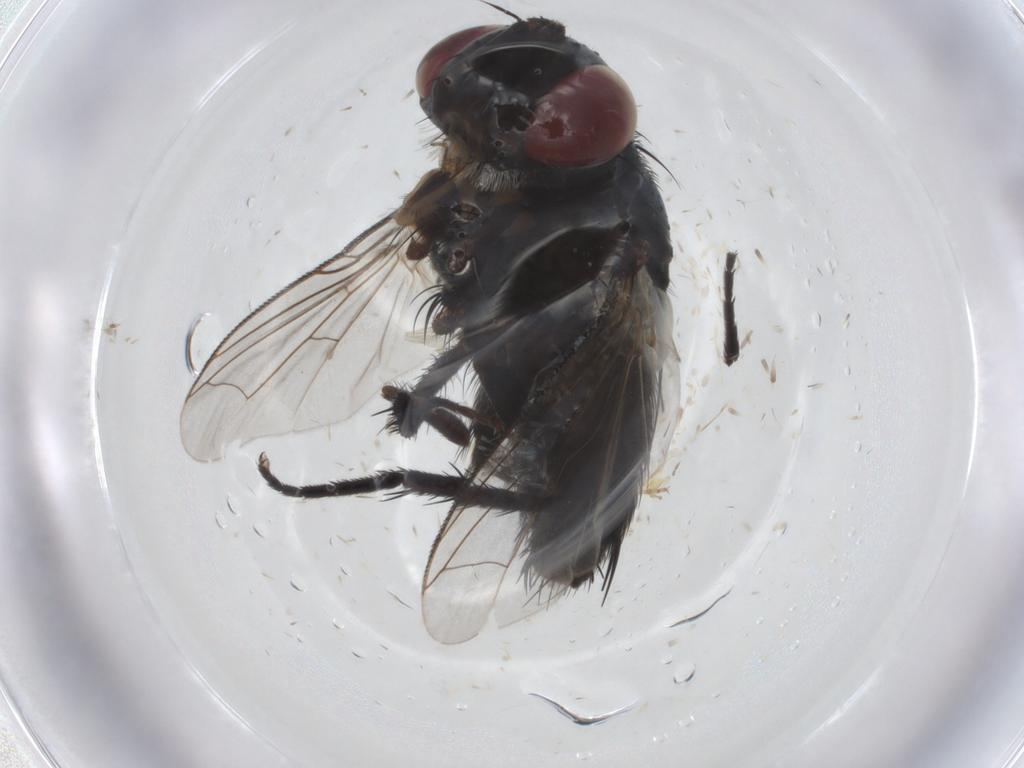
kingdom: Animalia
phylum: Arthropoda
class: Insecta
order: Diptera
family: Sarcophagidae
